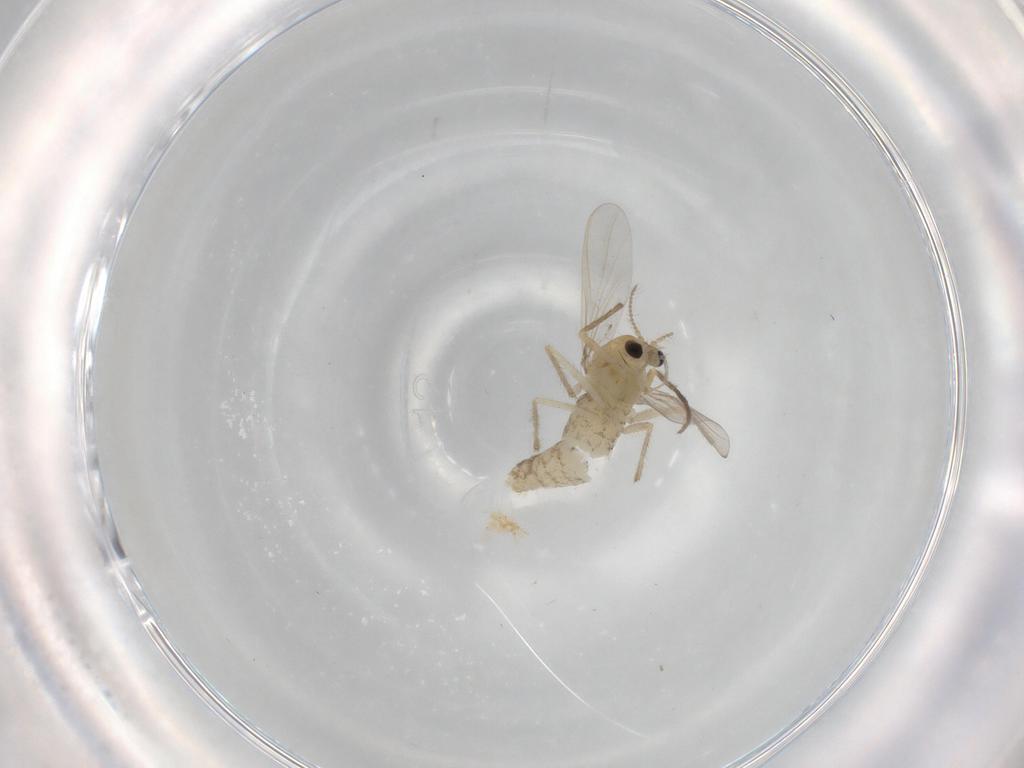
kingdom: Animalia
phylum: Arthropoda
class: Insecta
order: Diptera
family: Chironomidae
